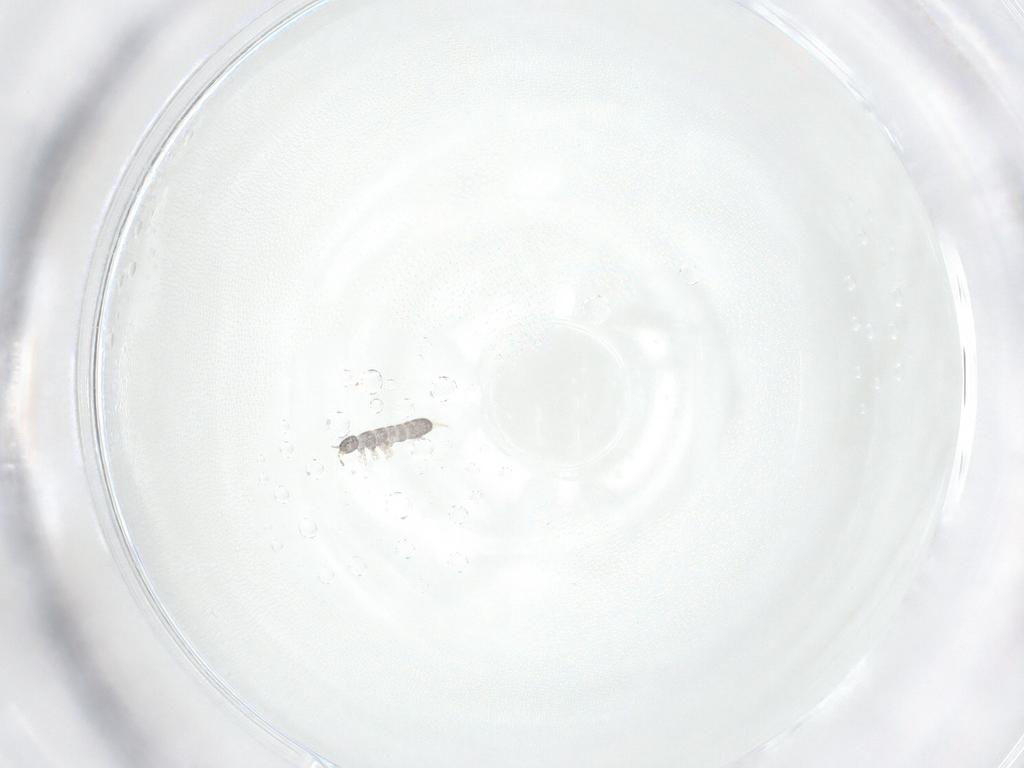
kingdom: Animalia
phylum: Arthropoda
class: Collembola
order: Entomobryomorpha
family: Isotomidae
